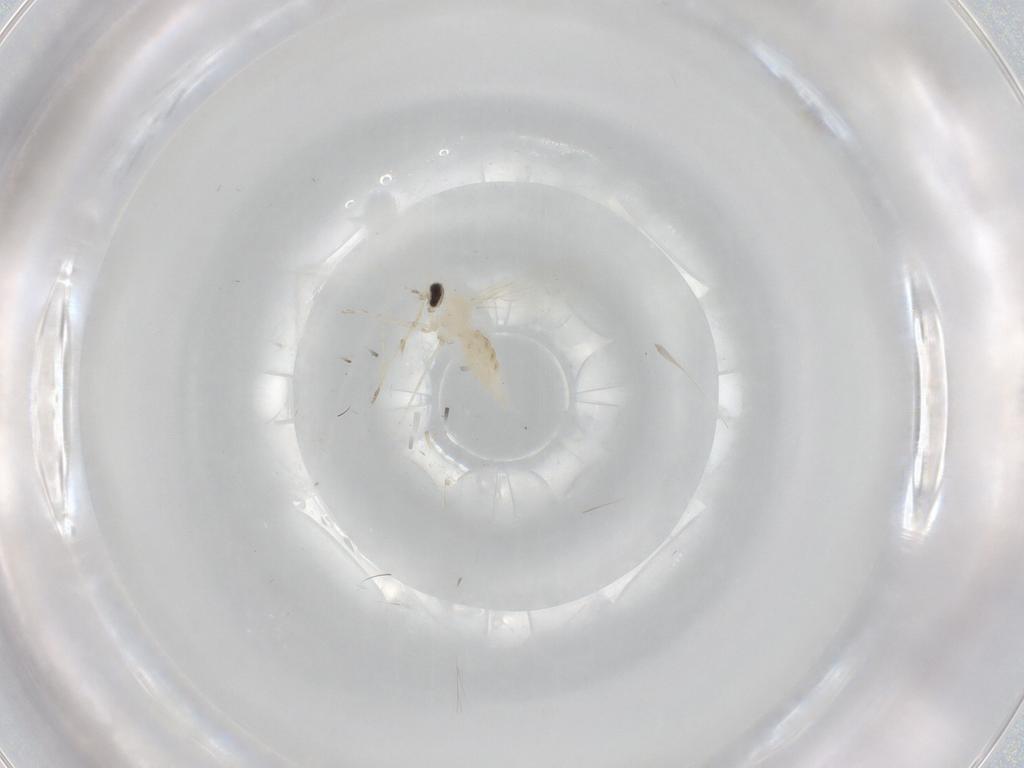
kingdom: Animalia
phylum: Arthropoda
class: Insecta
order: Diptera
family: Cecidomyiidae
